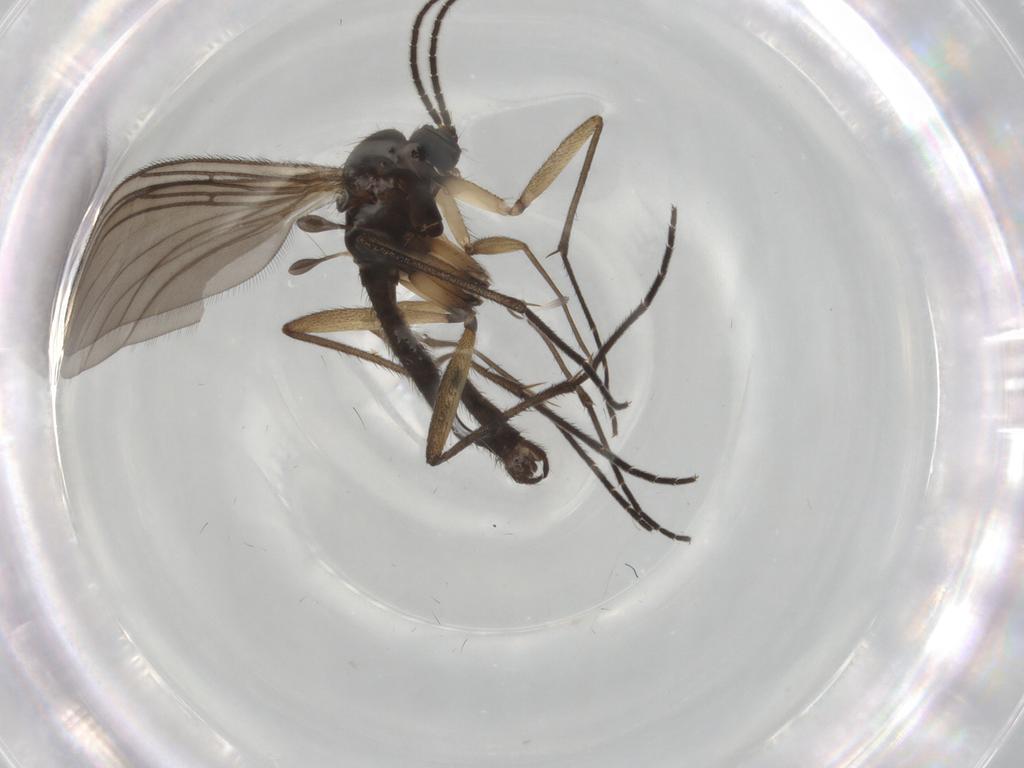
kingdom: Animalia
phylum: Arthropoda
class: Insecta
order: Diptera
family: Sciaridae
